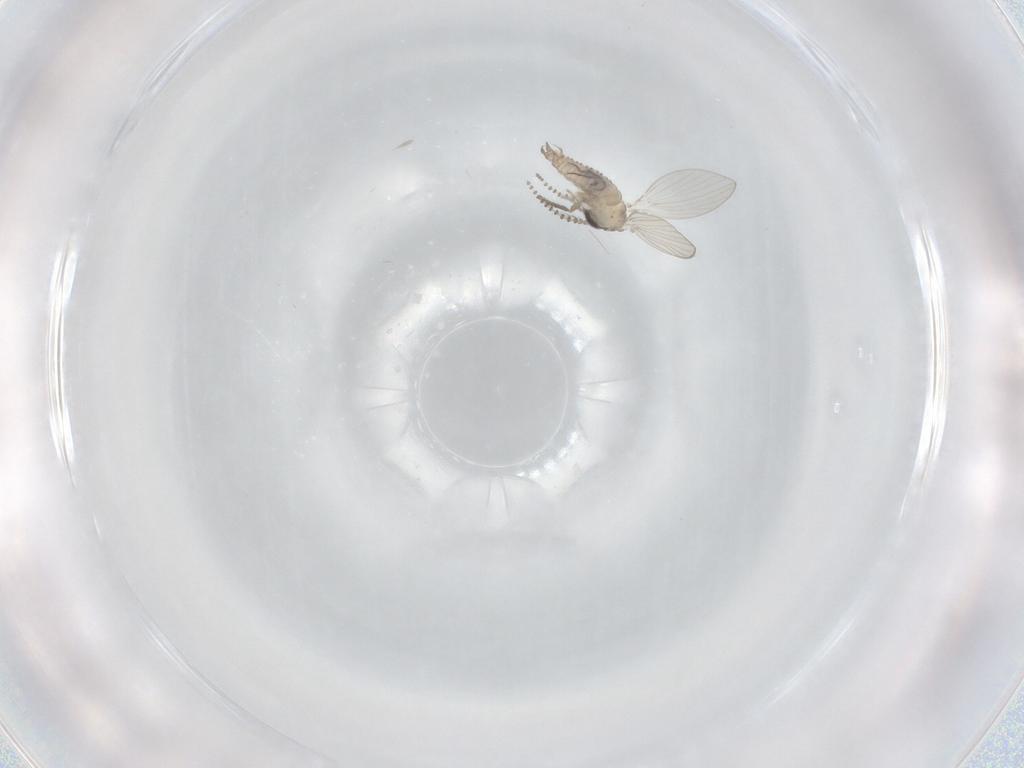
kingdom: Animalia
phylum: Arthropoda
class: Insecta
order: Diptera
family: Psychodidae
